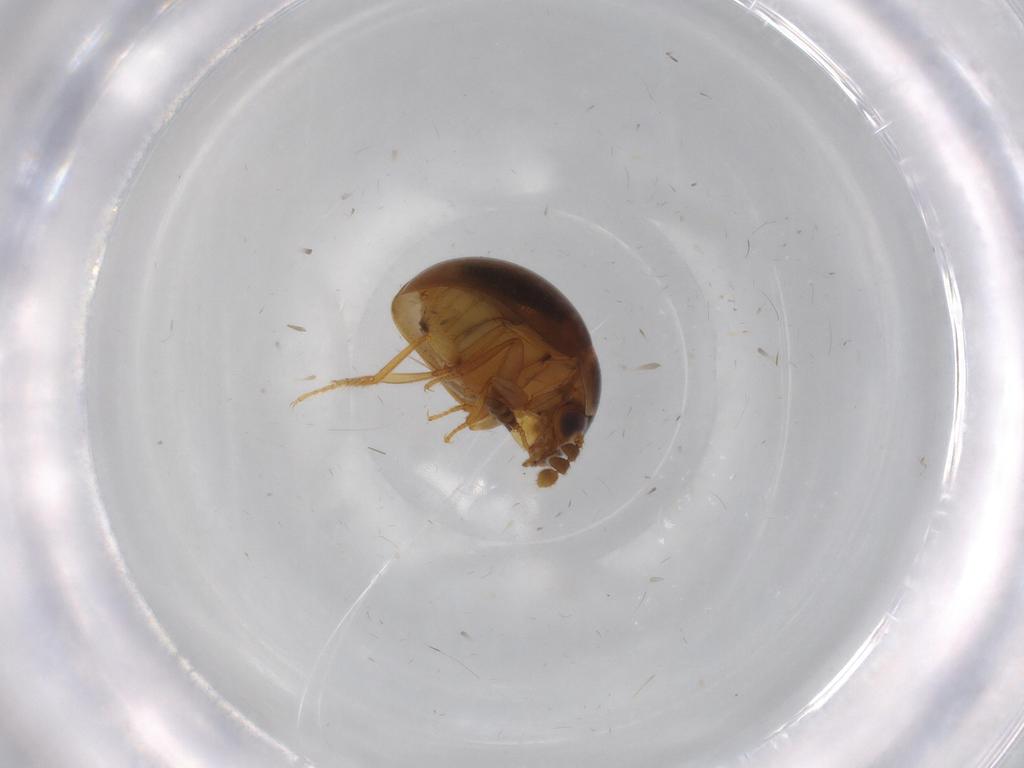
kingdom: Animalia
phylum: Arthropoda
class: Insecta
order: Coleoptera
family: Leiodidae
